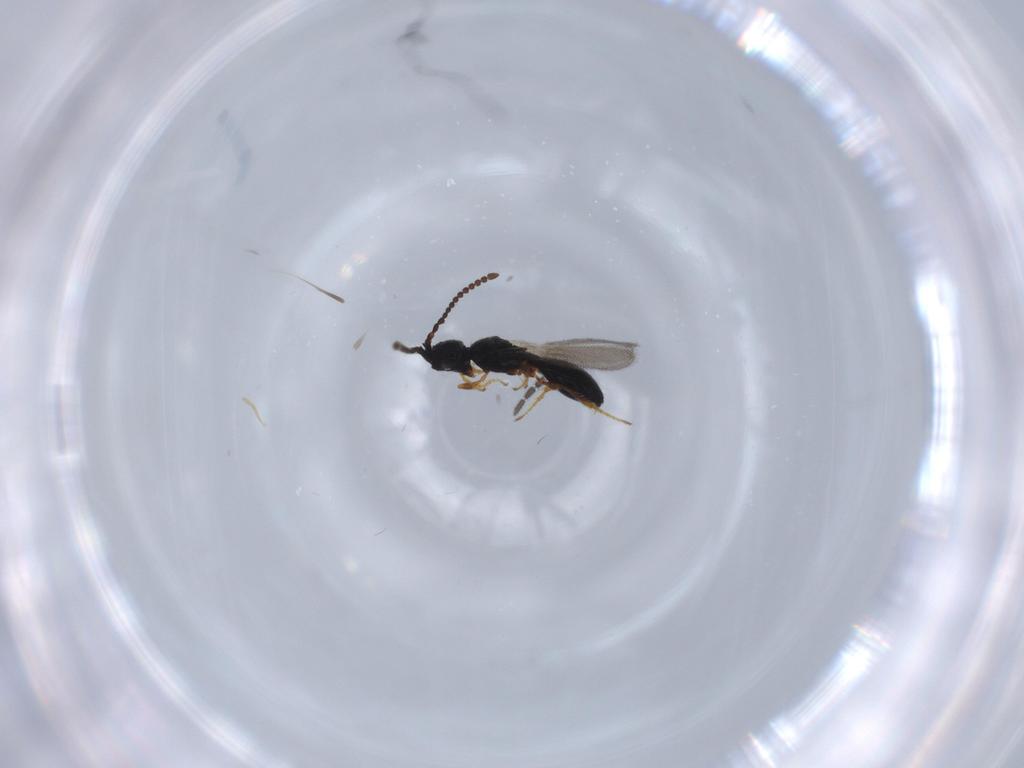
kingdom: Animalia
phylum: Arthropoda
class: Insecta
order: Hymenoptera
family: Diapriidae
